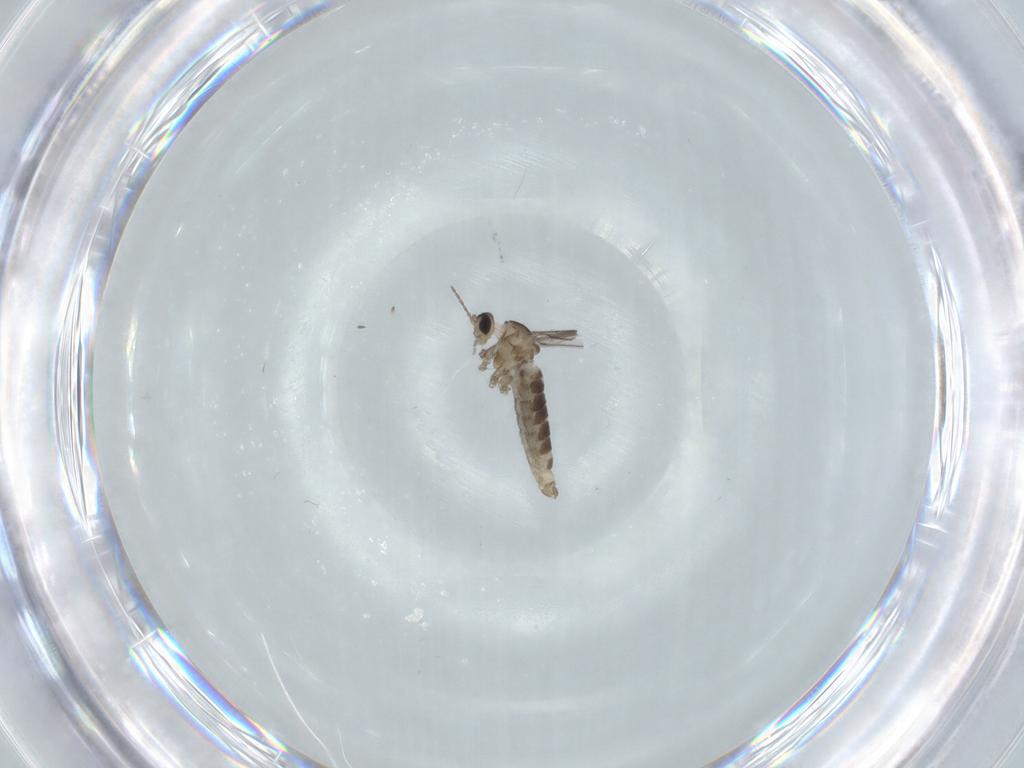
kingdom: Animalia
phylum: Arthropoda
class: Insecta
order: Diptera
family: Cecidomyiidae
